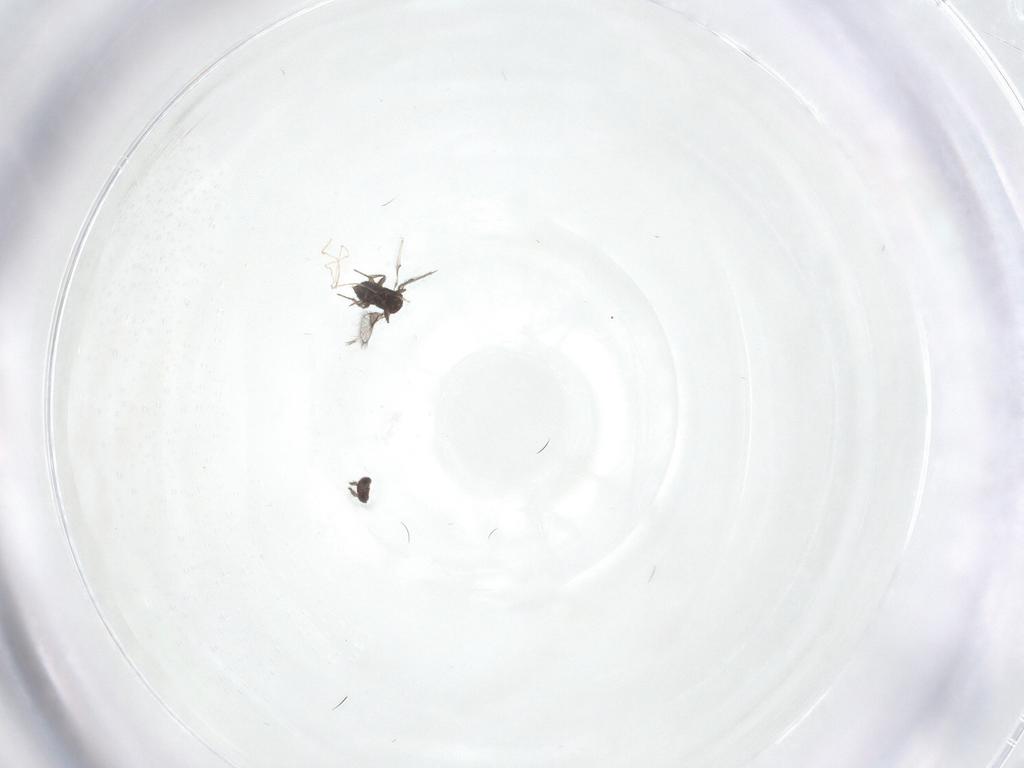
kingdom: Animalia
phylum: Arthropoda
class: Insecta
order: Hymenoptera
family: Trichogrammatidae
